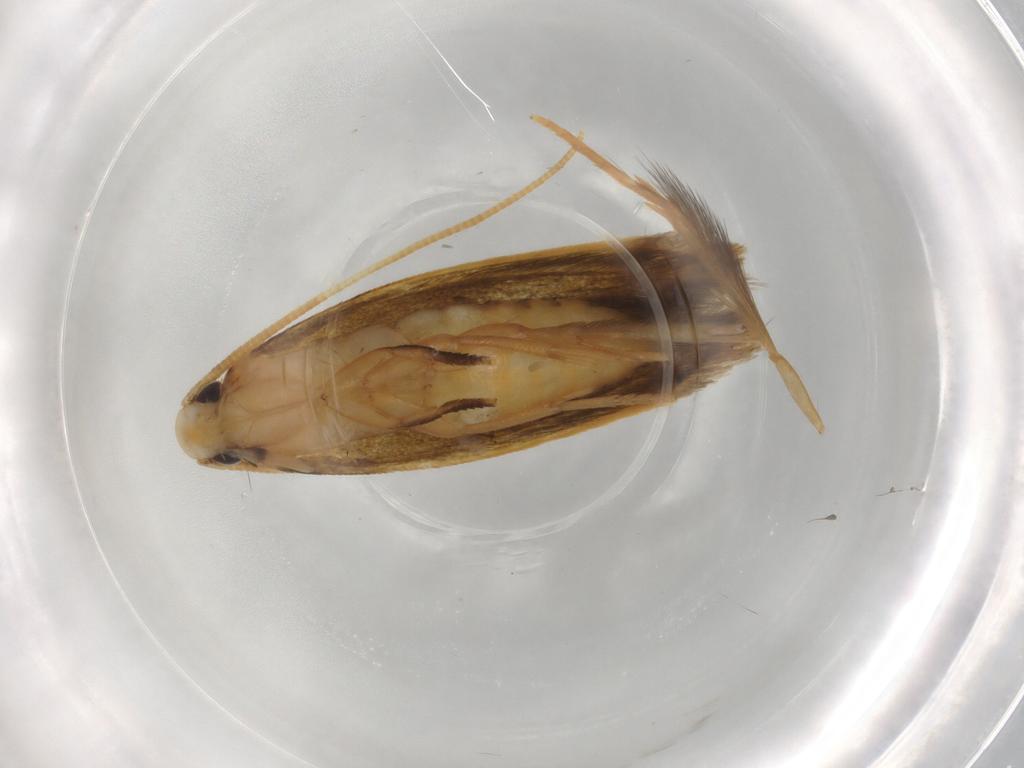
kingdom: Animalia
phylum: Arthropoda
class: Insecta
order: Lepidoptera
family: Tineidae
